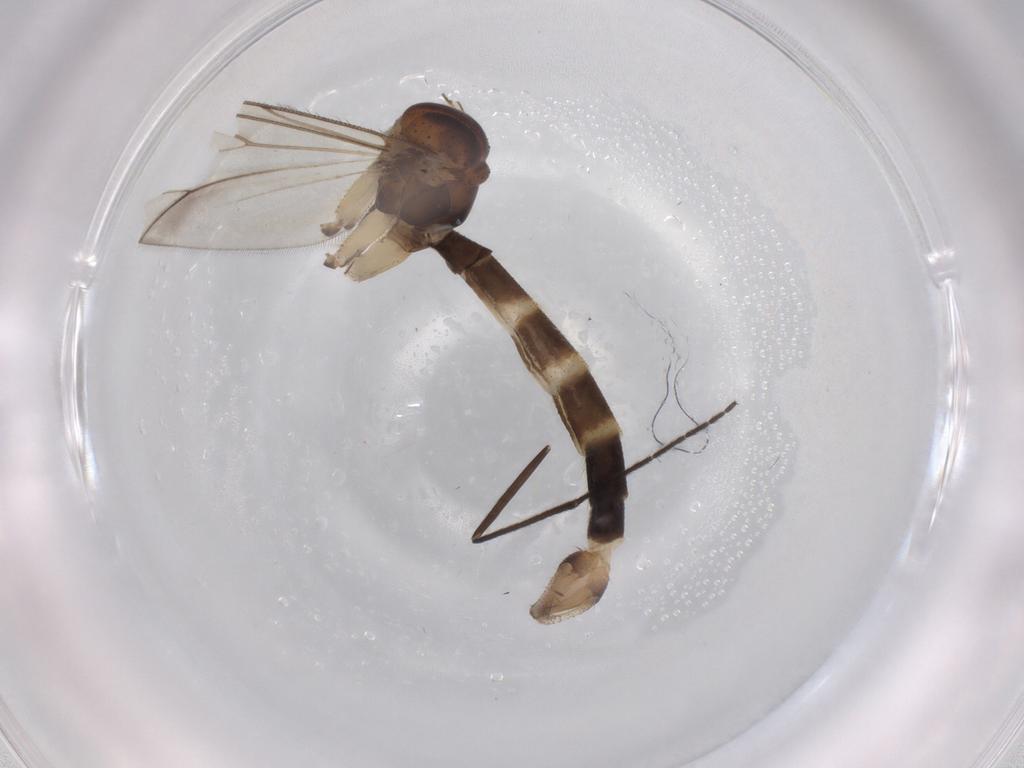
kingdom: Animalia
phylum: Arthropoda
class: Insecta
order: Diptera
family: Mycetophilidae
